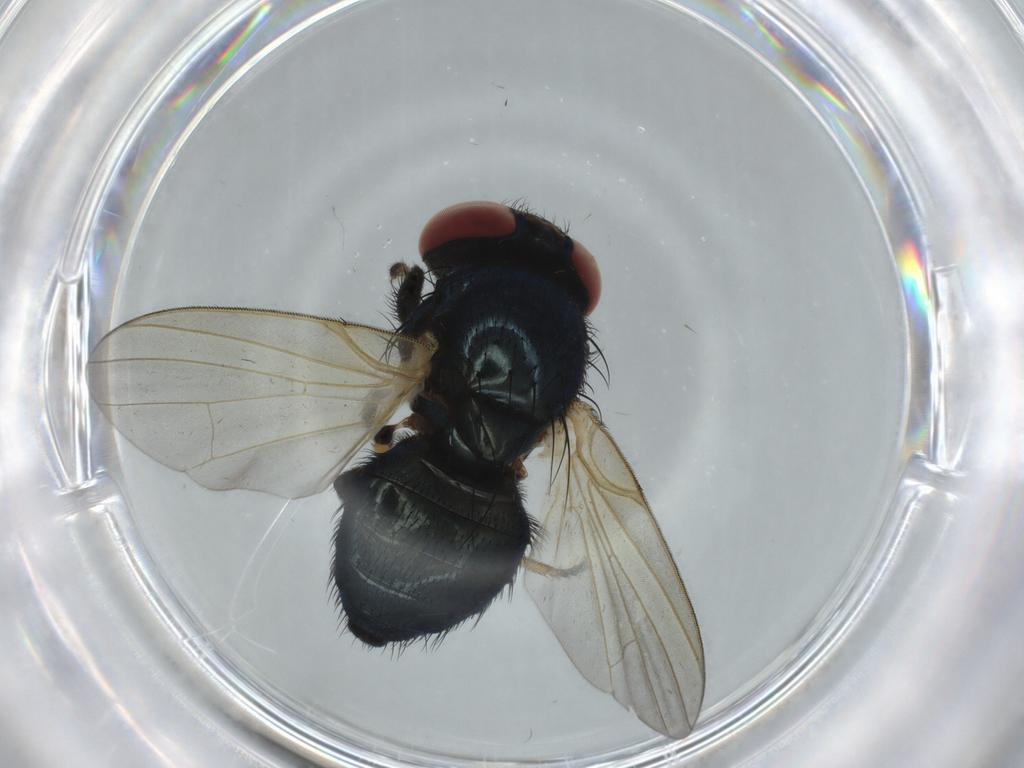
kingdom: Animalia
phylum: Arthropoda
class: Insecta
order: Diptera
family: Lonchaeidae
